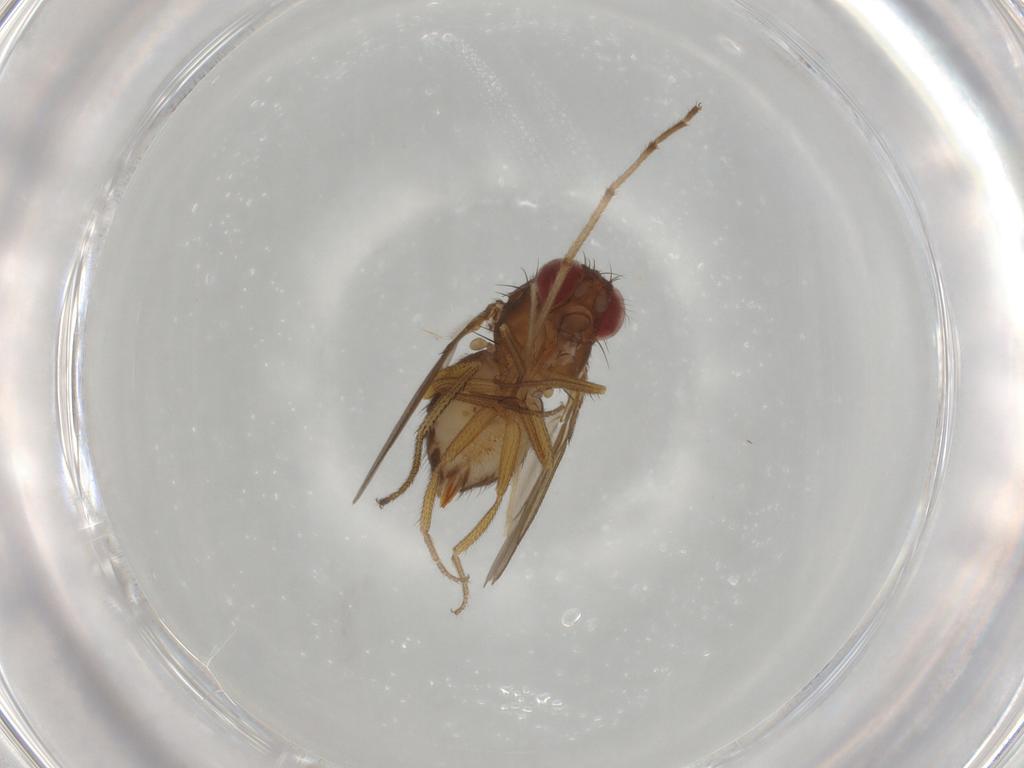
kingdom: Animalia
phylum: Arthropoda
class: Insecta
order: Diptera
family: Drosophilidae
